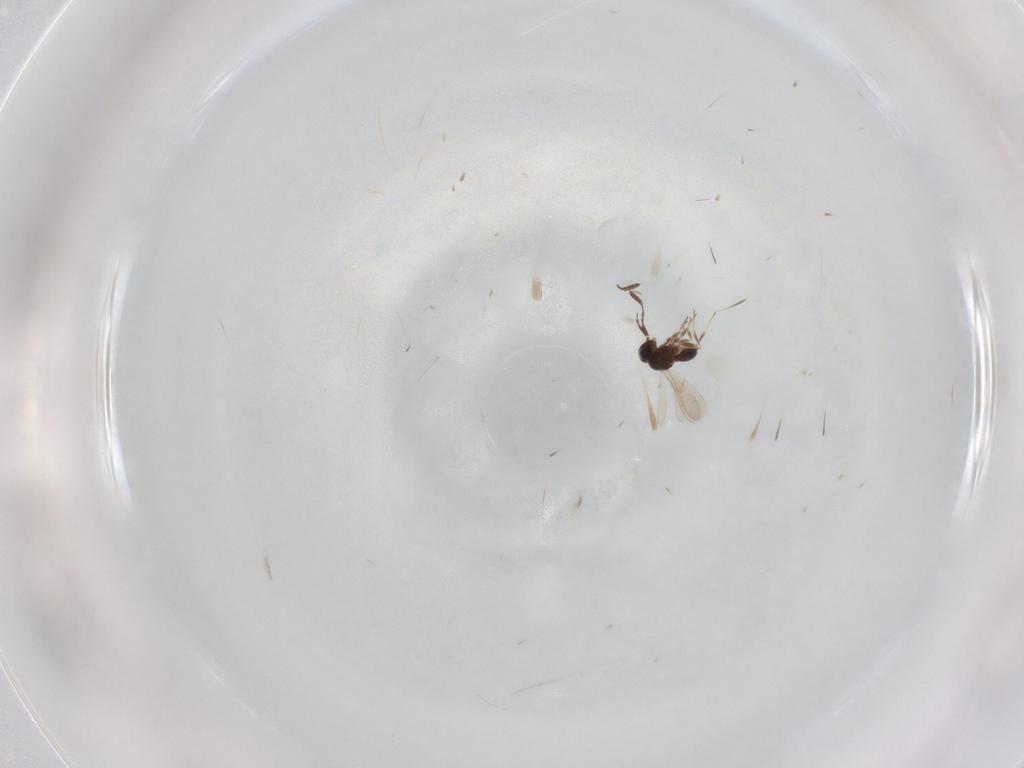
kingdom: Animalia
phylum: Arthropoda
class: Insecta
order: Hymenoptera
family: Scelionidae
